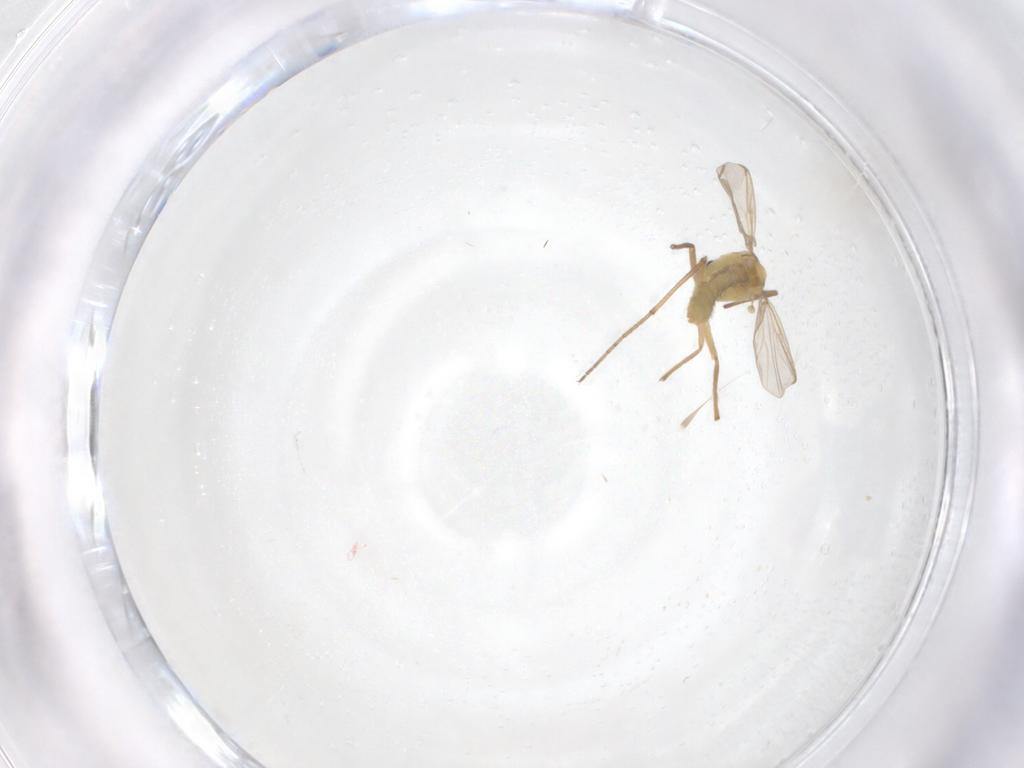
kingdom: Animalia
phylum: Arthropoda
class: Insecta
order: Diptera
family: Chironomidae
